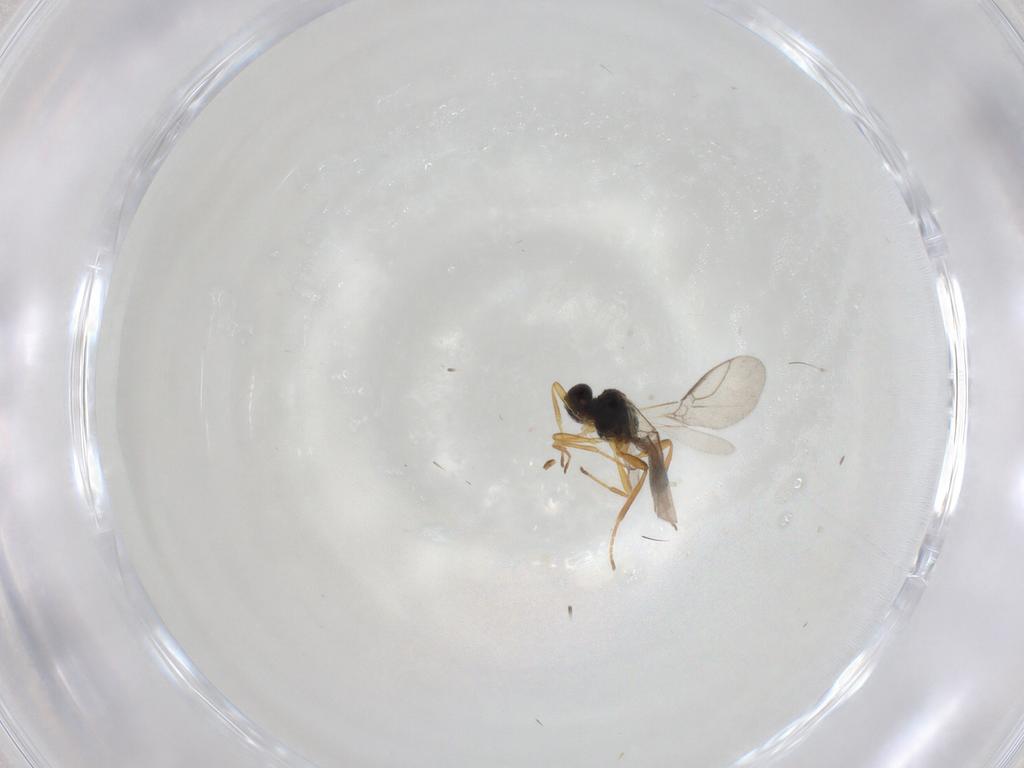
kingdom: Animalia
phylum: Arthropoda
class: Insecta
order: Hymenoptera
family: Braconidae
